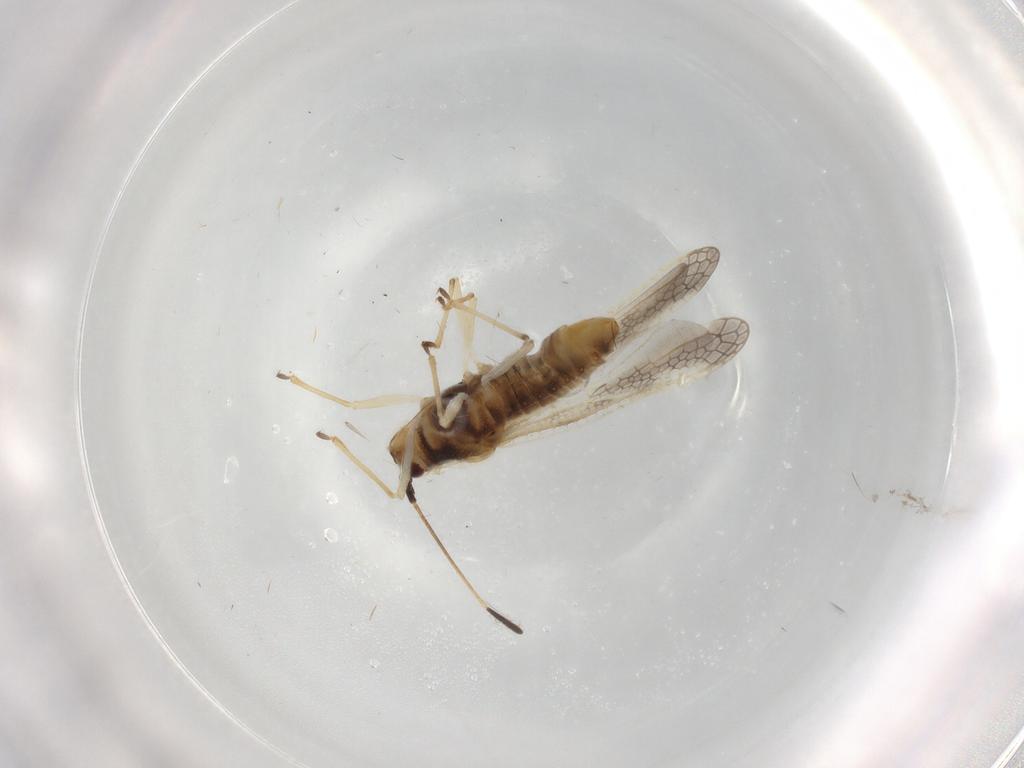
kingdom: Animalia
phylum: Arthropoda
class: Insecta
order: Hemiptera
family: Tingidae
